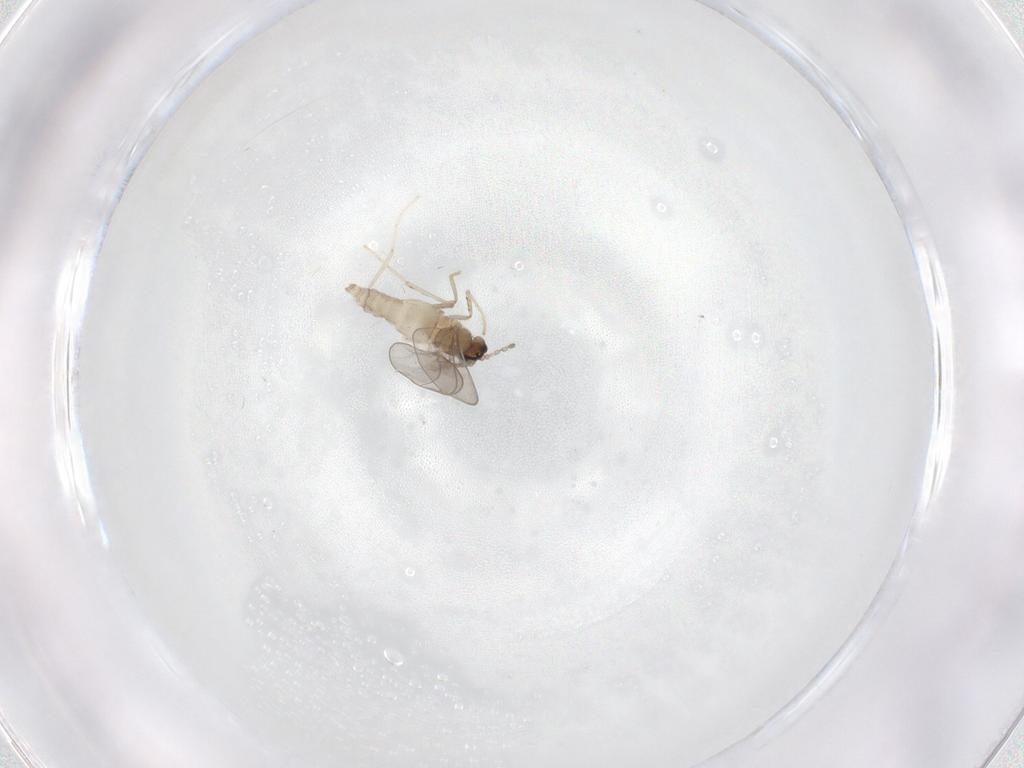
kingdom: Animalia
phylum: Arthropoda
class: Insecta
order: Diptera
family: Cecidomyiidae
